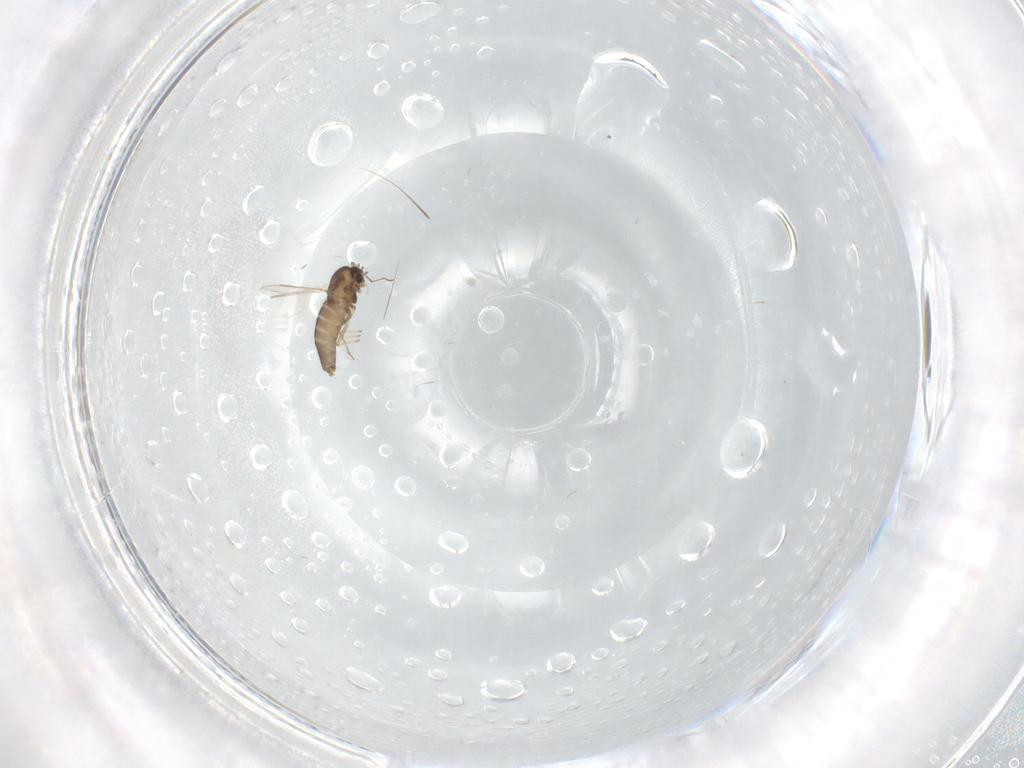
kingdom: Animalia
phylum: Arthropoda
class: Insecta
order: Diptera
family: Chironomidae
